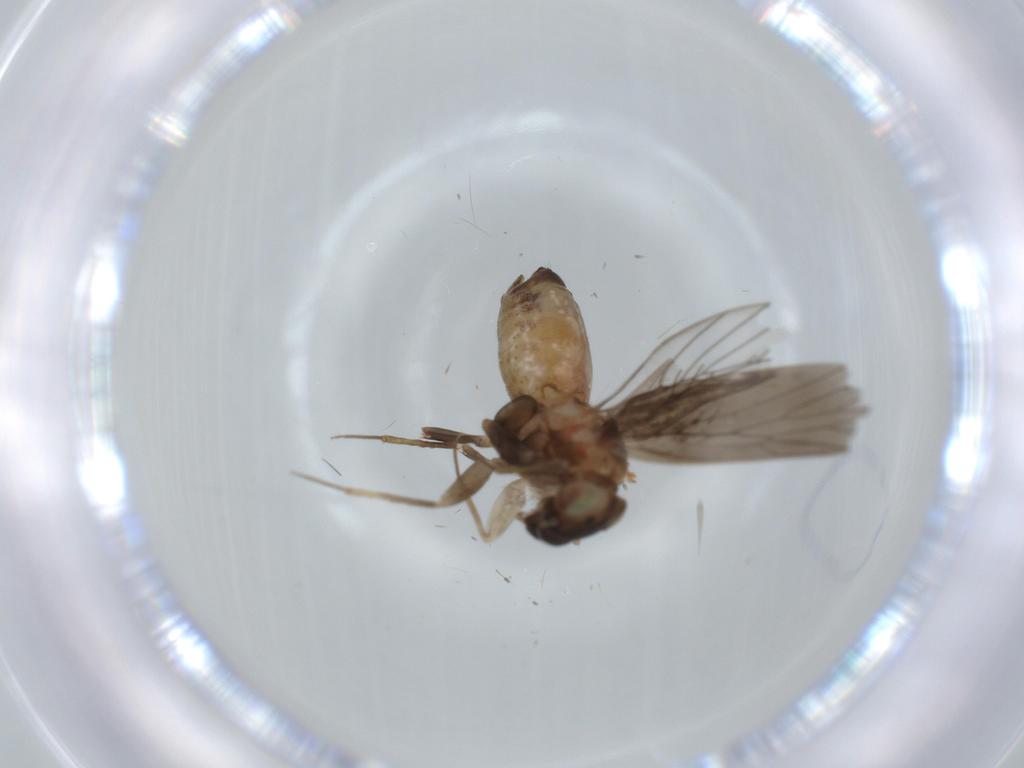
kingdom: Animalia
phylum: Arthropoda
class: Insecta
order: Psocodea
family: Lepidopsocidae
